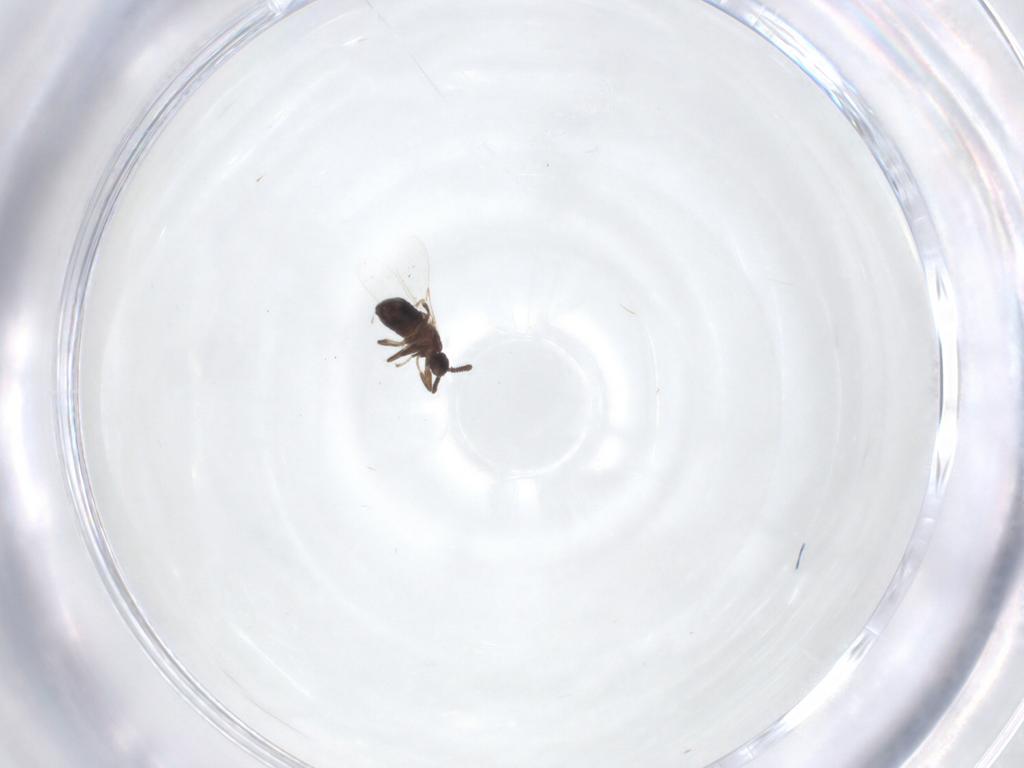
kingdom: Animalia
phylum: Arthropoda
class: Insecta
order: Diptera
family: Scatopsidae
